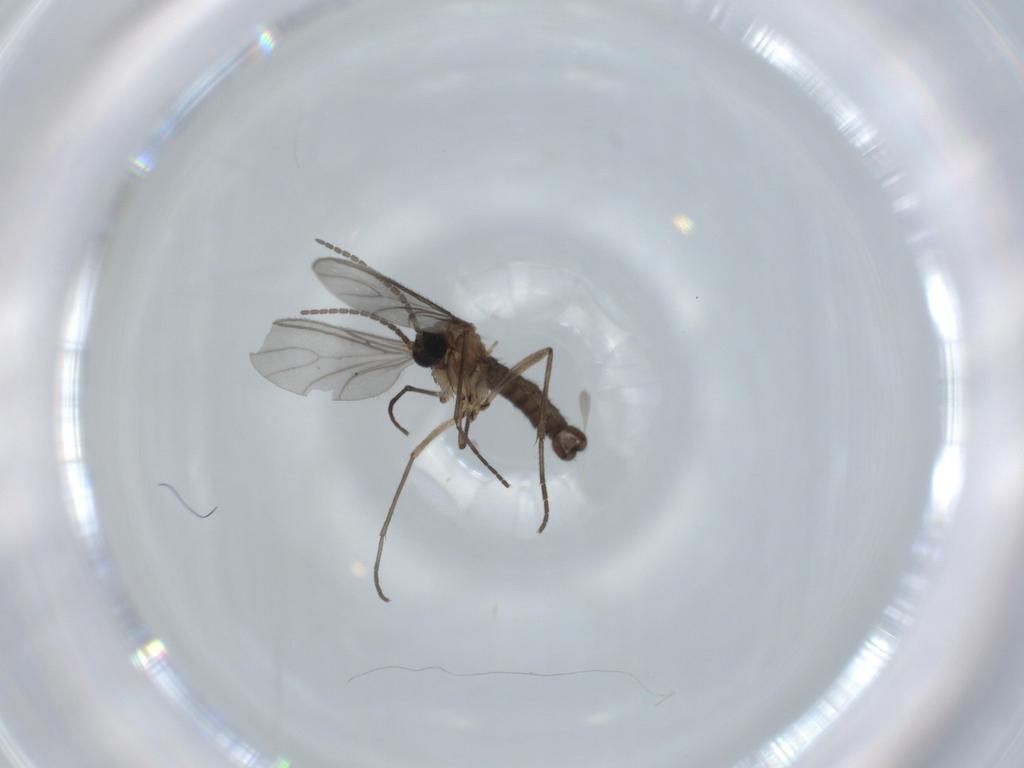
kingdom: Animalia
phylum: Arthropoda
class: Insecta
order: Diptera
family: Sciaridae
